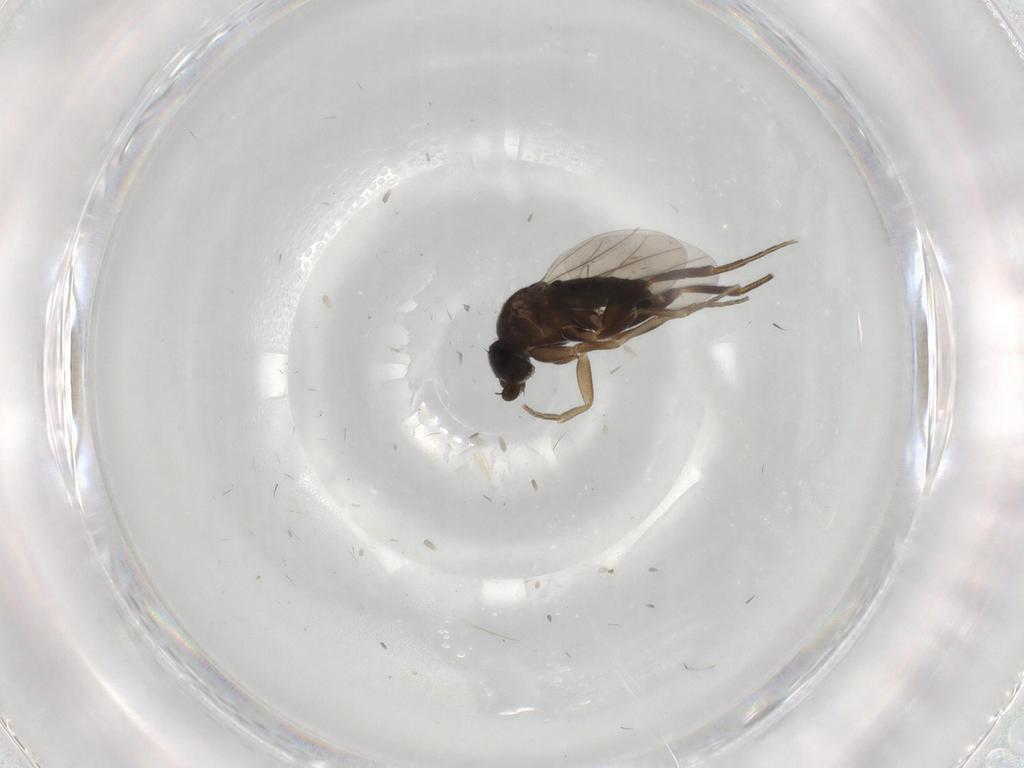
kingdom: Animalia
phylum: Arthropoda
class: Insecta
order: Diptera
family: Phoridae
